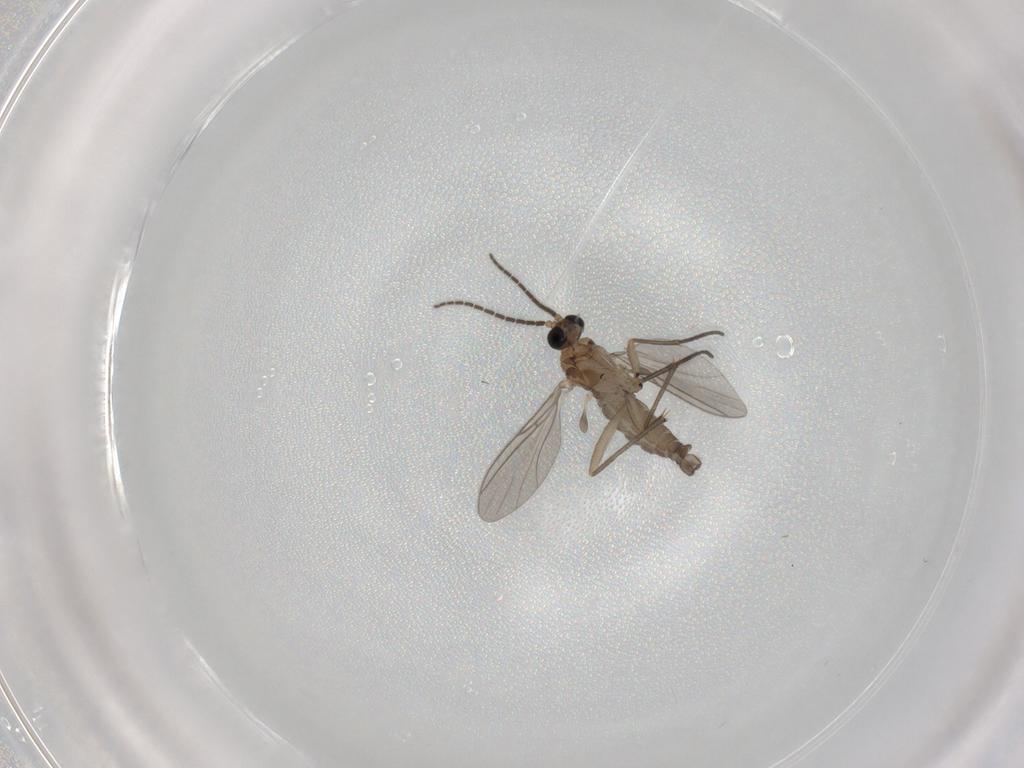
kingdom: Animalia
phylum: Arthropoda
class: Insecta
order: Diptera
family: Sciaridae
